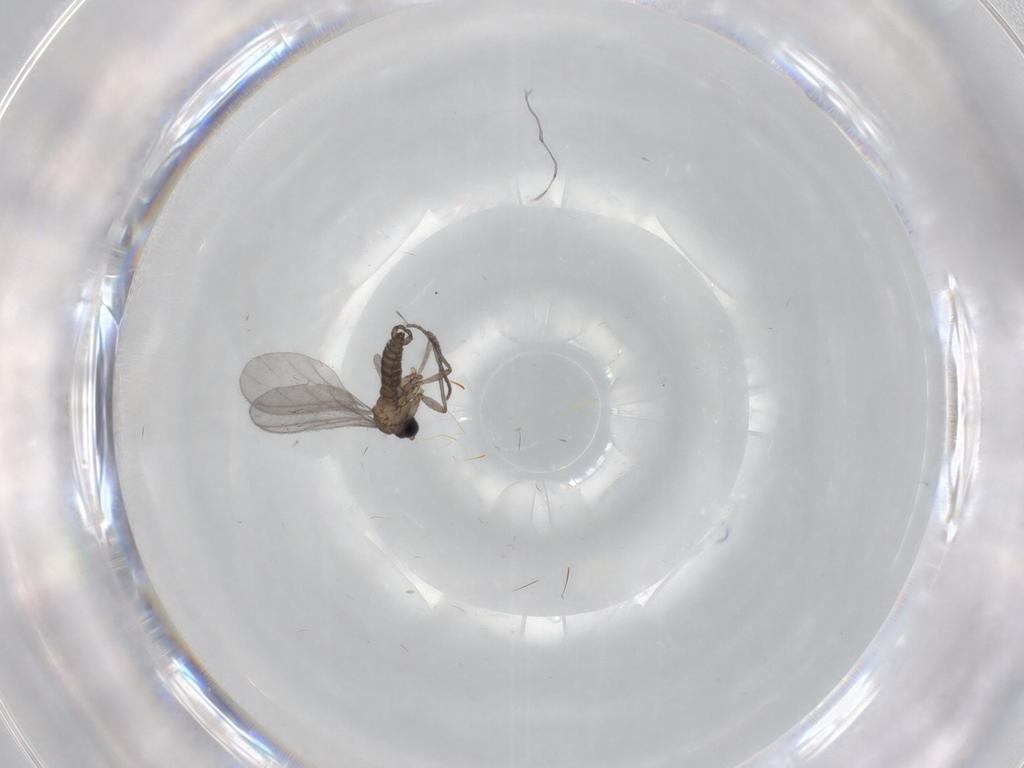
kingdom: Animalia
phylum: Arthropoda
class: Insecta
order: Diptera
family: Sciaridae
